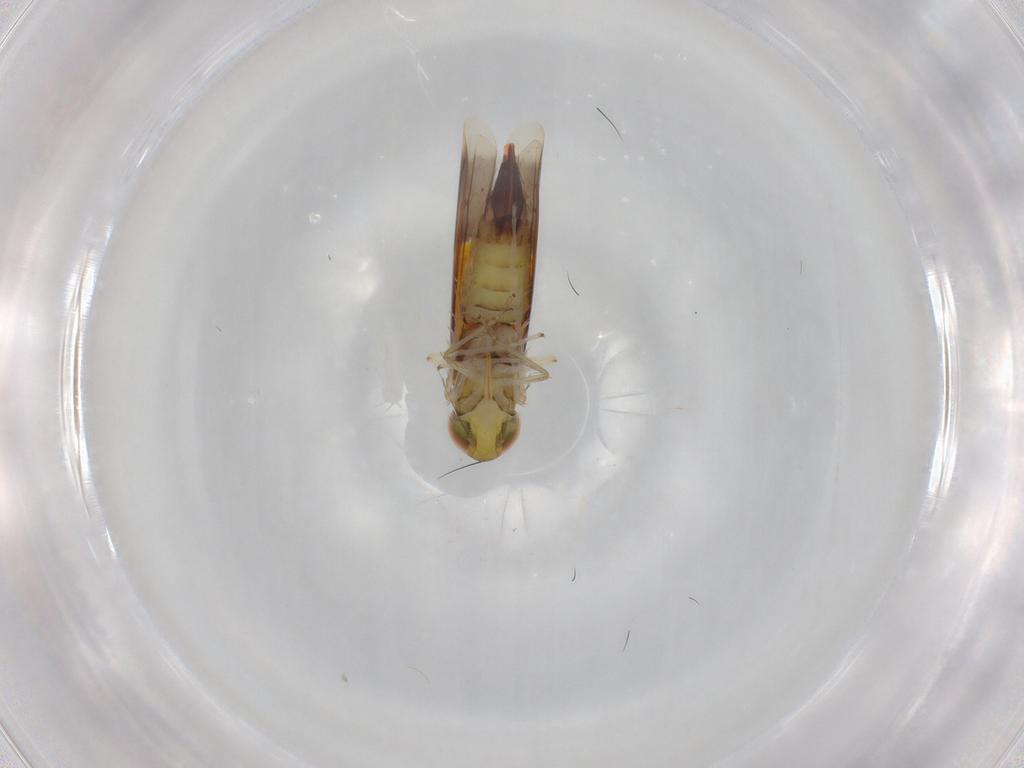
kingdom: Animalia
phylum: Arthropoda
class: Insecta
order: Hemiptera
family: Cicadellidae
